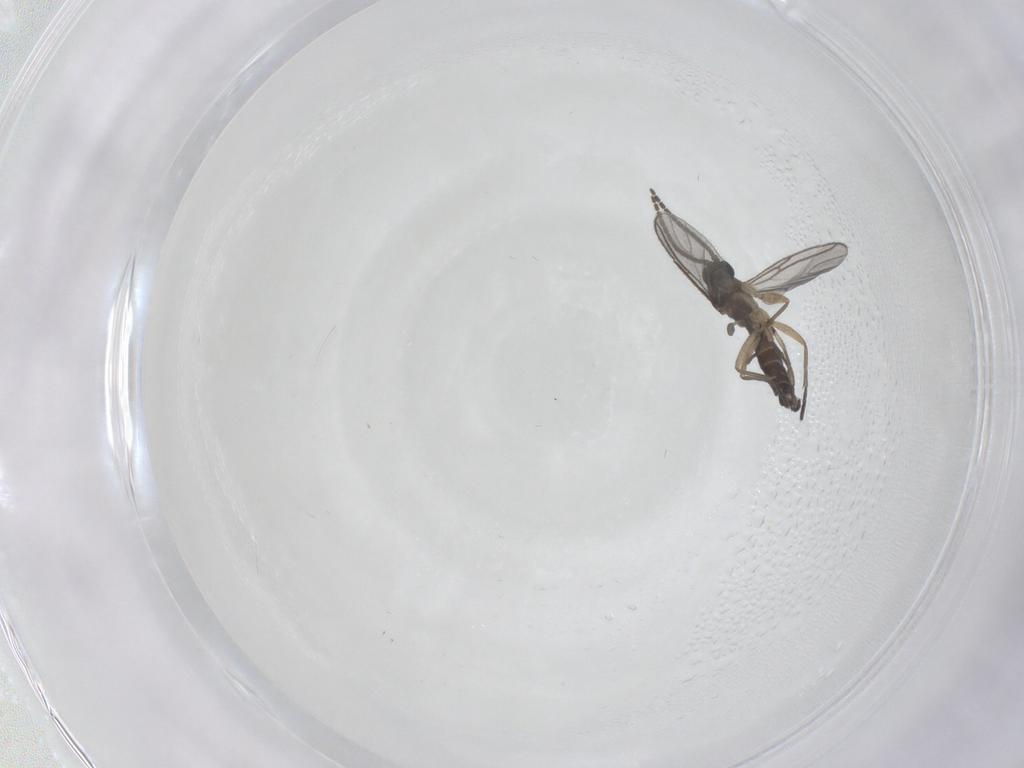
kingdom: Animalia
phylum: Arthropoda
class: Insecta
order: Diptera
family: Sciaridae
